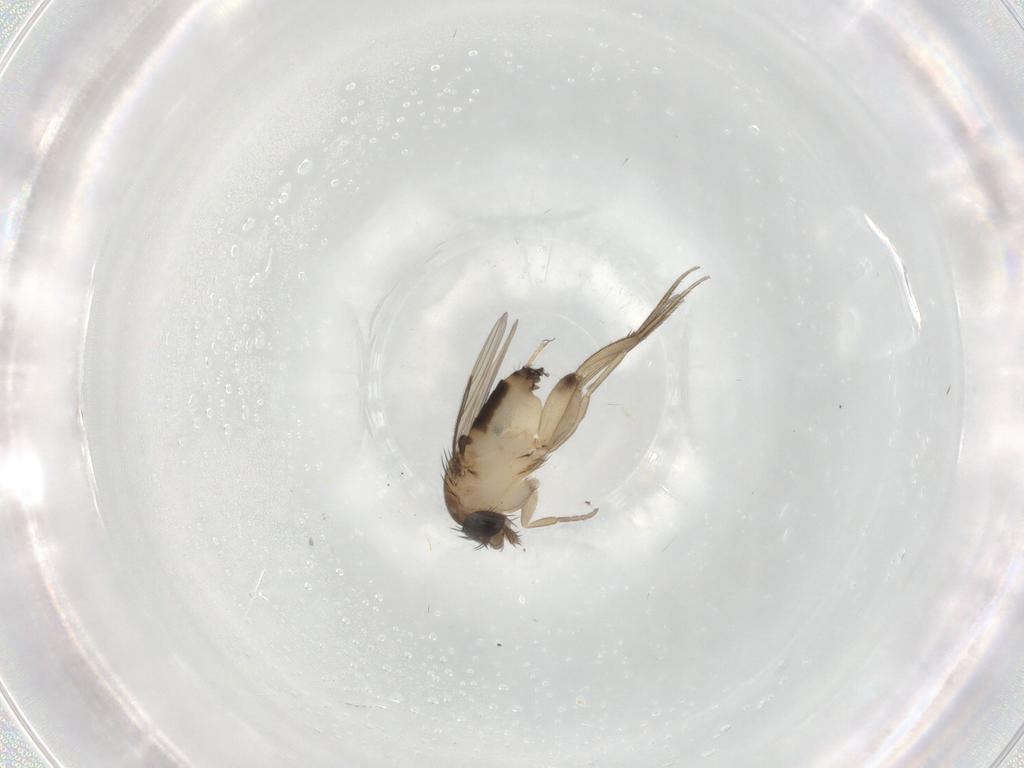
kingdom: Animalia
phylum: Arthropoda
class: Insecta
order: Diptera
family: Phoridae
